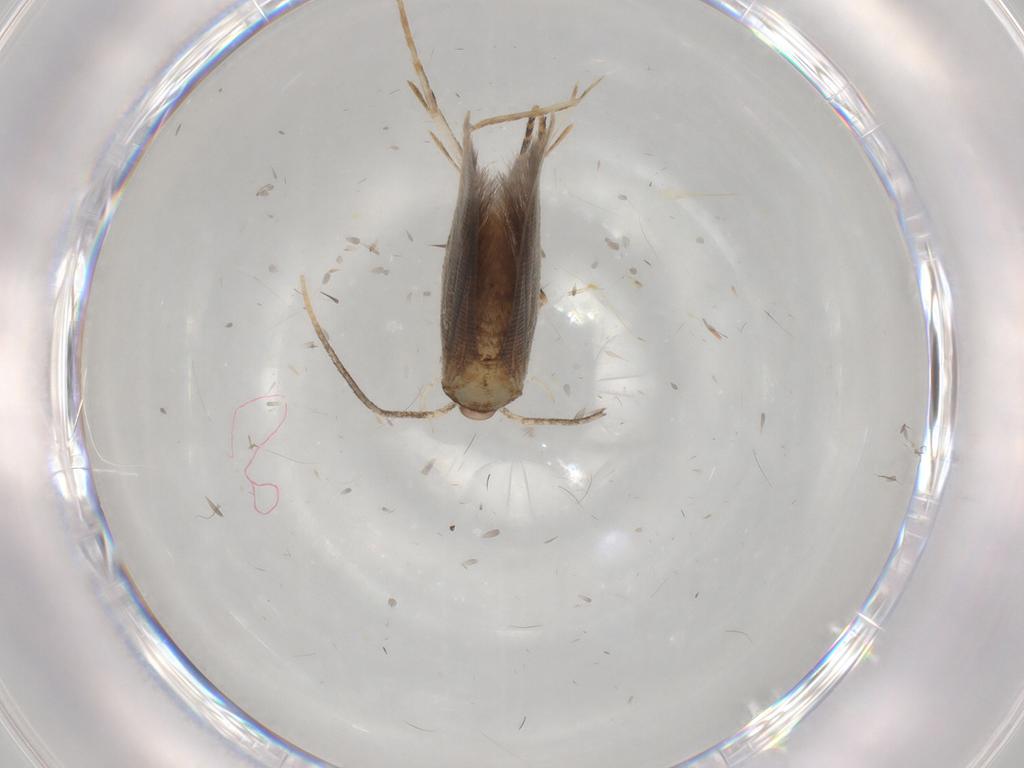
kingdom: Animalia
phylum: Arthropoda
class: Insecta
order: Lepidoptera
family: Cosmopterigidae
